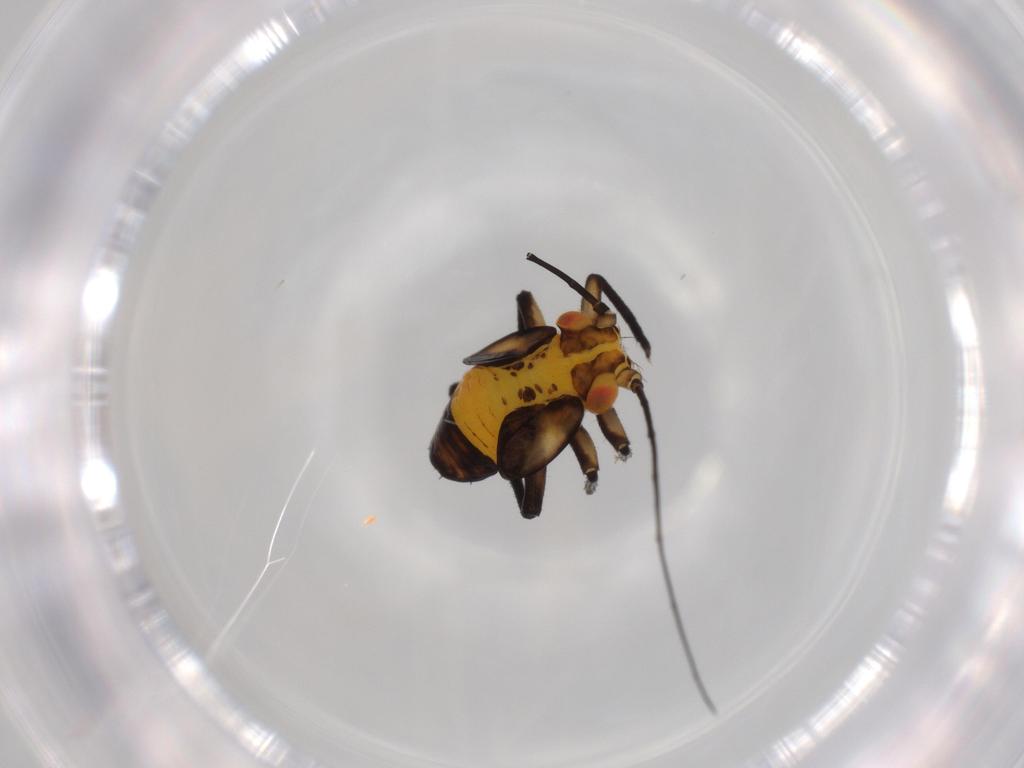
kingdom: Animalia
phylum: Arthropoda
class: Insecta
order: Hemiptera
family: Psyllidae
